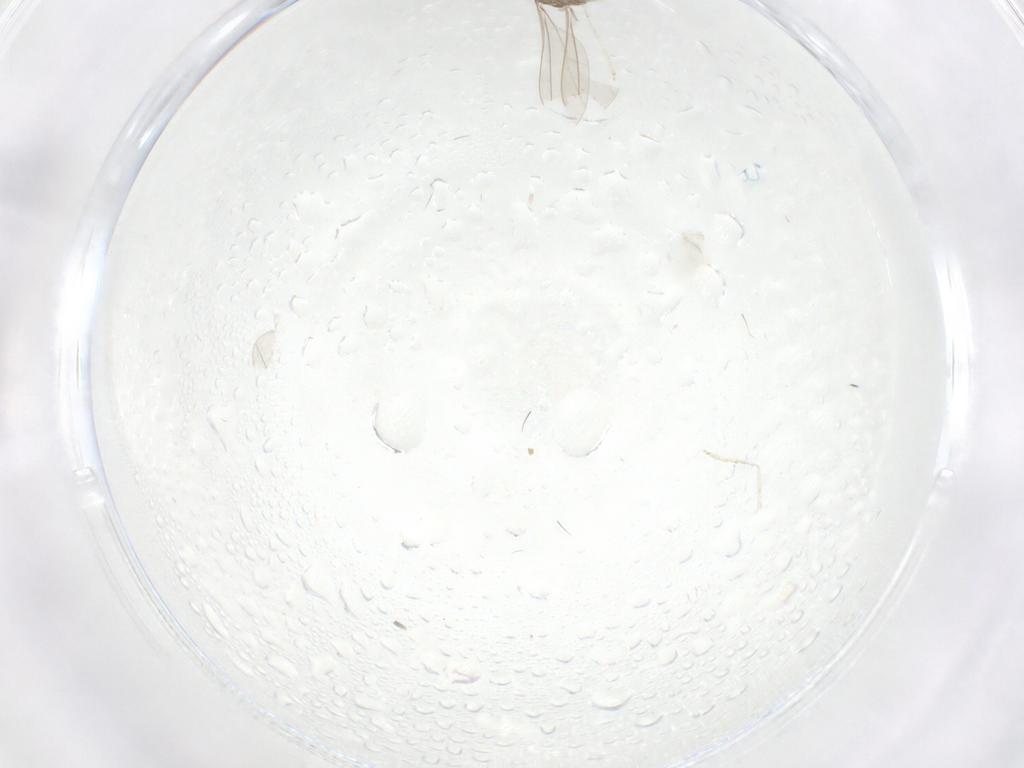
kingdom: Animalia
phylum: Arthropoda
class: Insecta
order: Diptera
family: Cecidomyiidae
